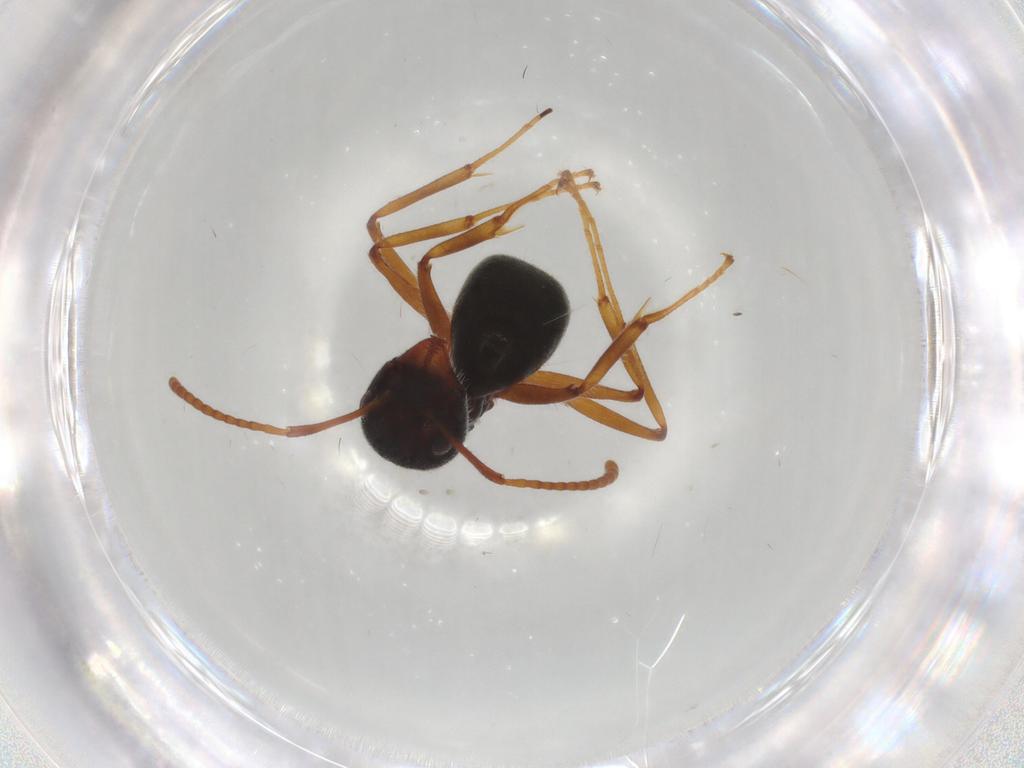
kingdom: Animalia
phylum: Arthropoda
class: Insecta
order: Hymenoptera
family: Formicidae
